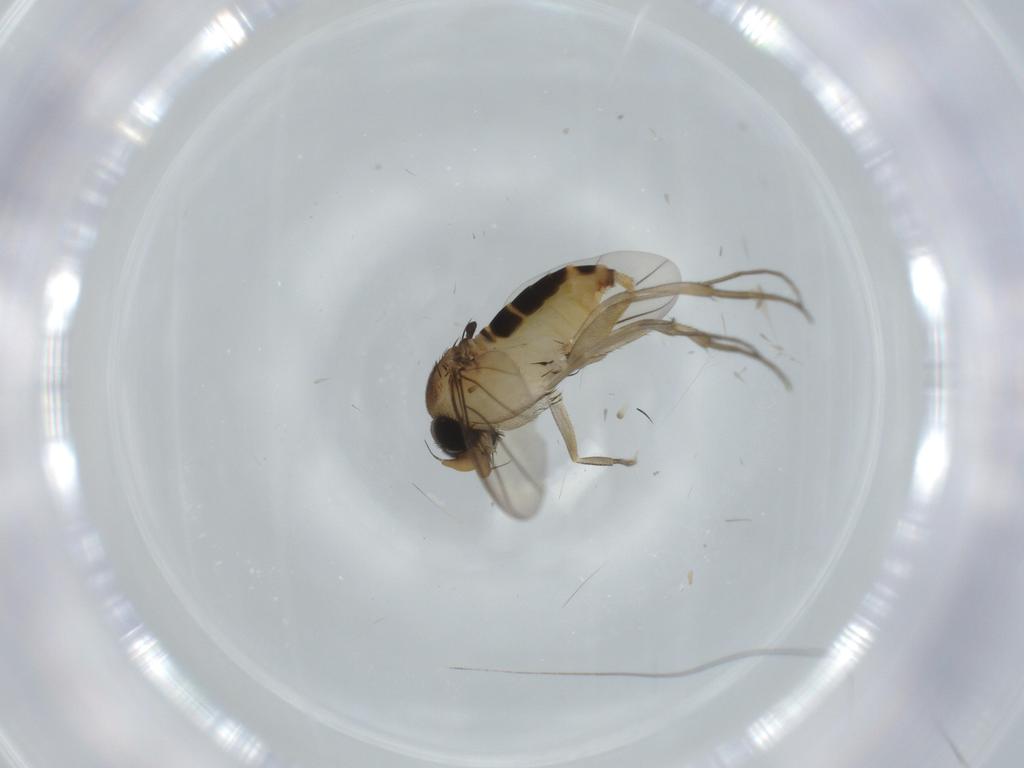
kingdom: Animalia
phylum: Arthropoda
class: Insecta
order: Diptera
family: Phoridae
